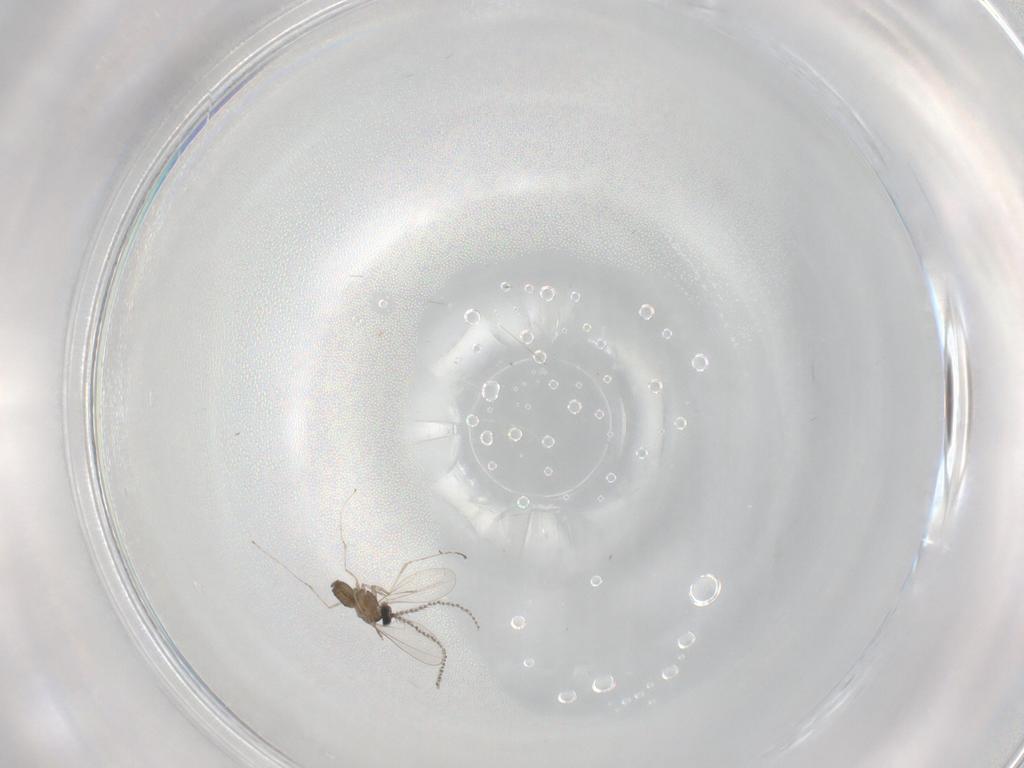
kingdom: Animalia
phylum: Arthropoda
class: Insecta
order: Diptera
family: Cecidomyiidae
